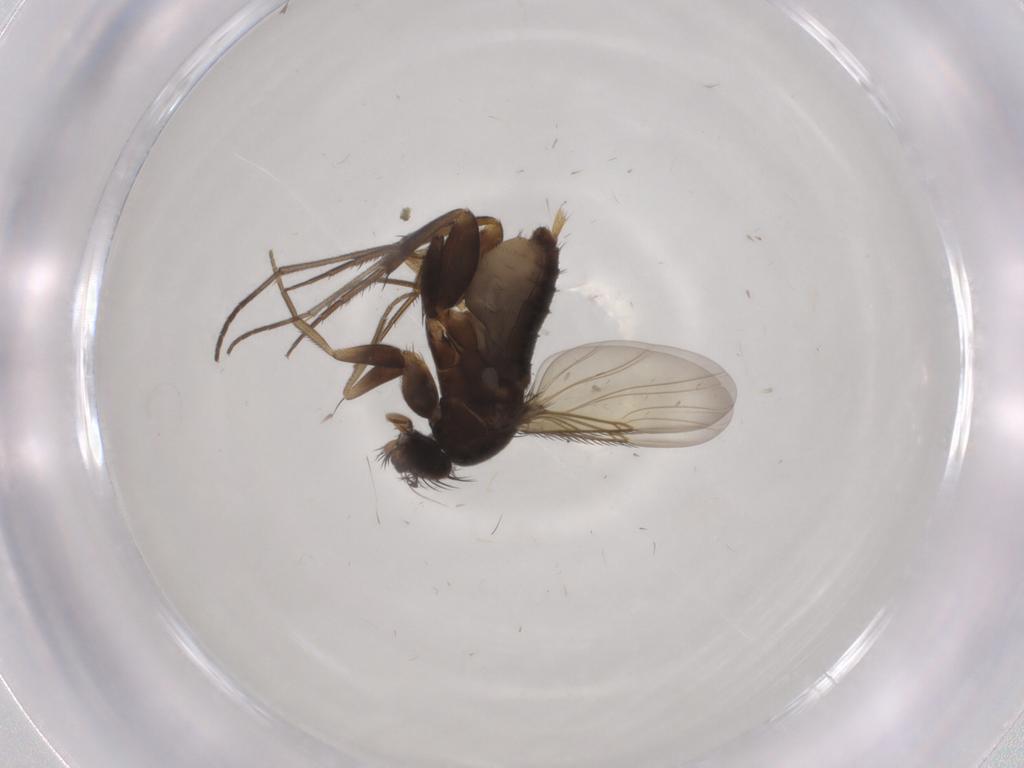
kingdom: Animalia
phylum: Arthropoda
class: Insecta
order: Diptera
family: Phoridae
